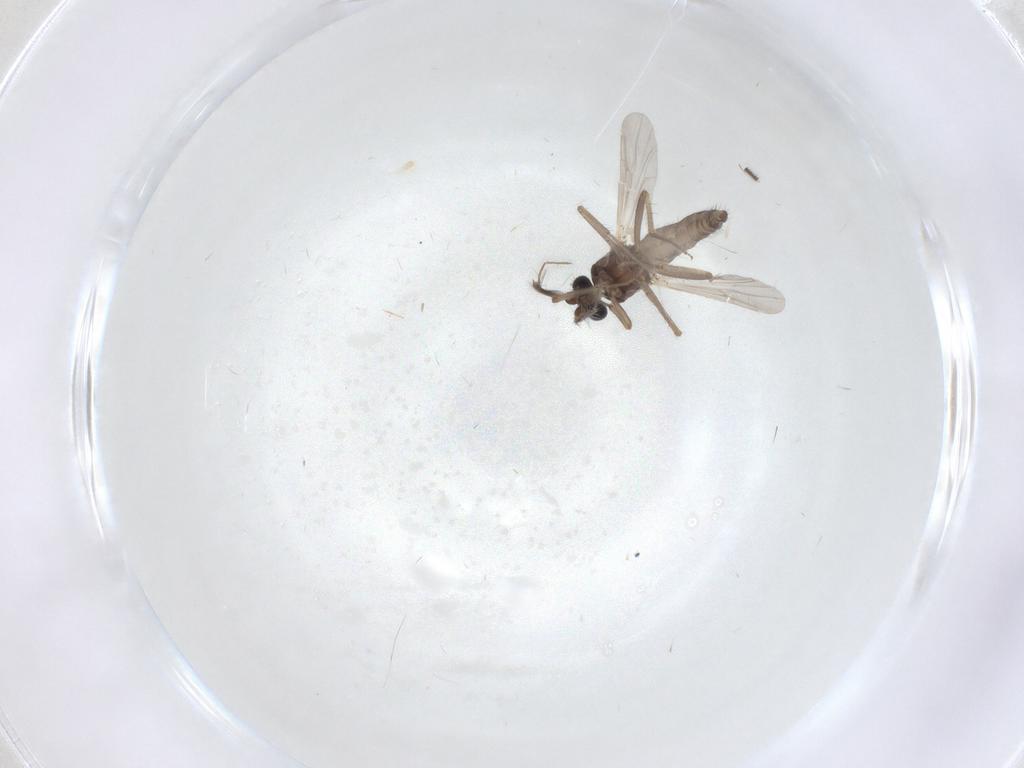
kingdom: Animalia
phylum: Arthropoda
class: Insecta
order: Diptera
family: Ceratopogonidae
